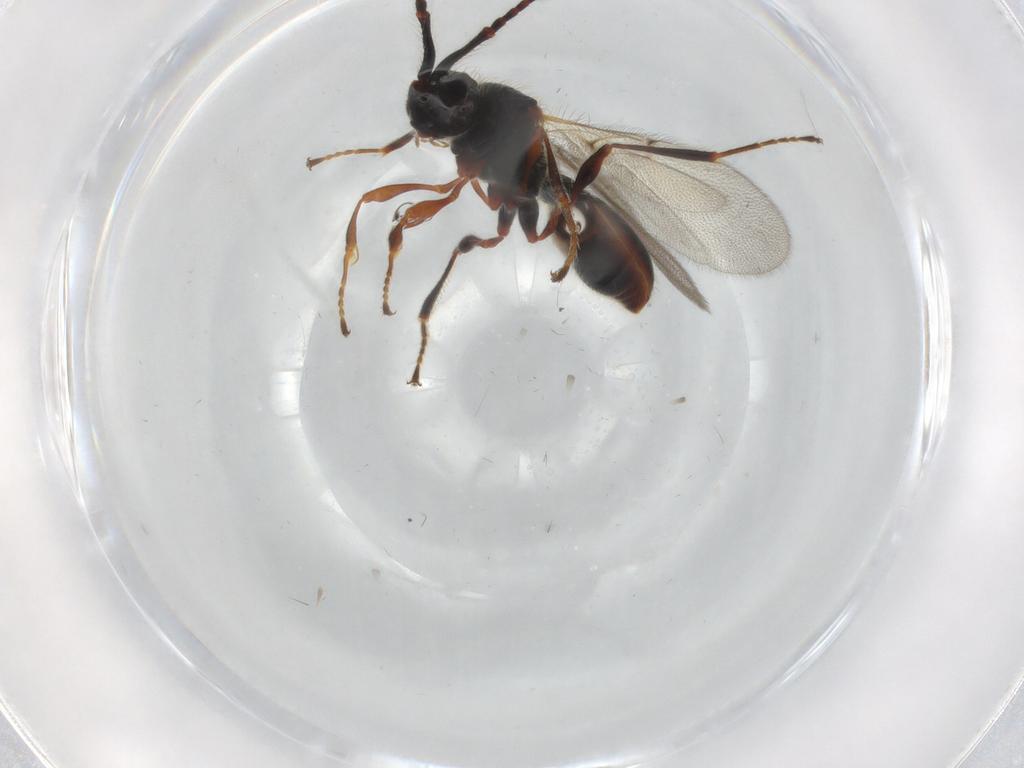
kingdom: Animalia
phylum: Arthropoda
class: Insecta
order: Hymenoptera
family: Diapriidae
